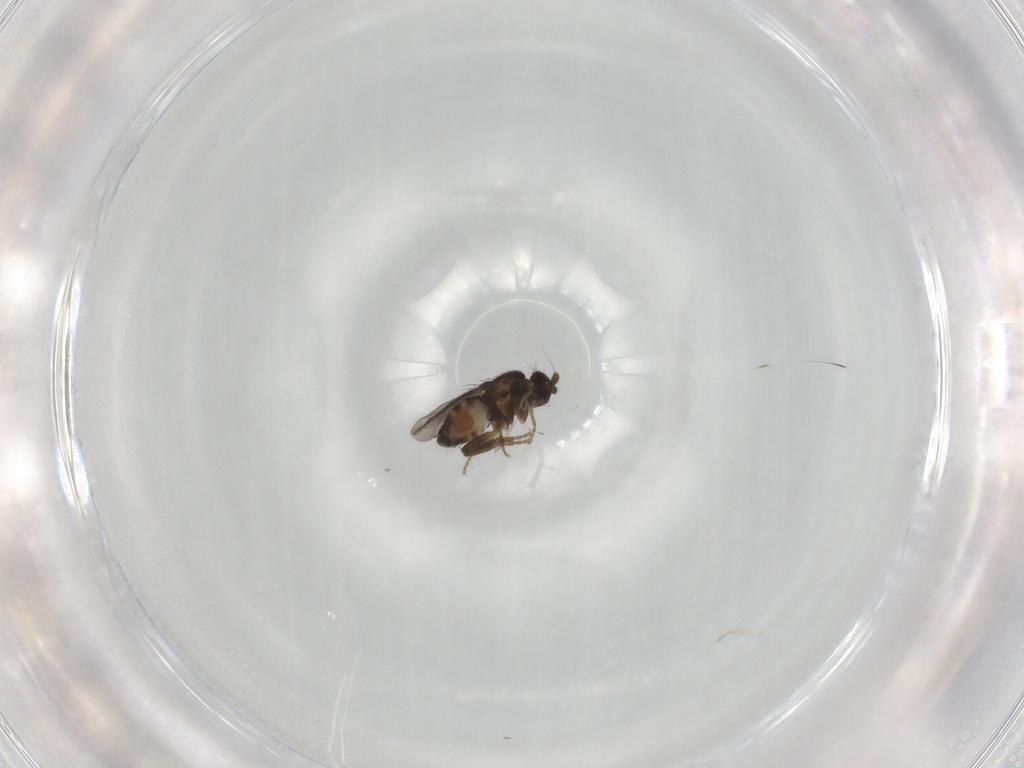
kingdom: Animalia
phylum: Arthropoda
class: Insecta
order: Diptera
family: Sphaeroceridae
